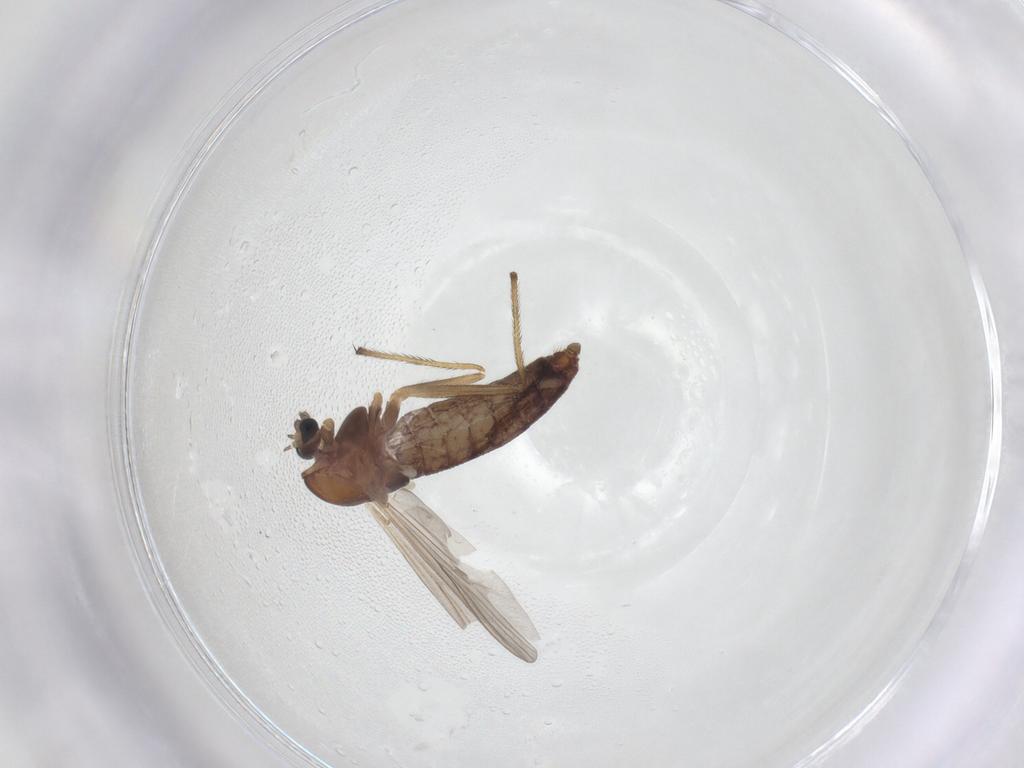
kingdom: Animalia
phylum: Arthropoda
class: Insecta
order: Diptera
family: Chironomidae
